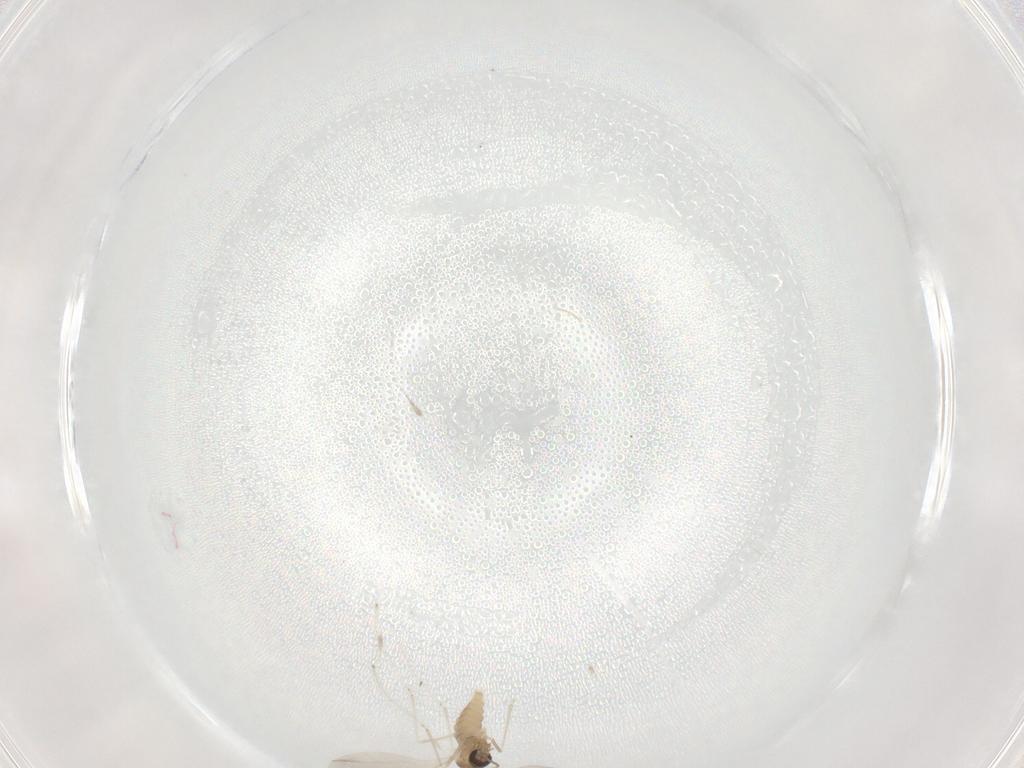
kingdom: Animalia
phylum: Arthropoda
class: Insecta
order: Diptera
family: Cecidomyiidae
